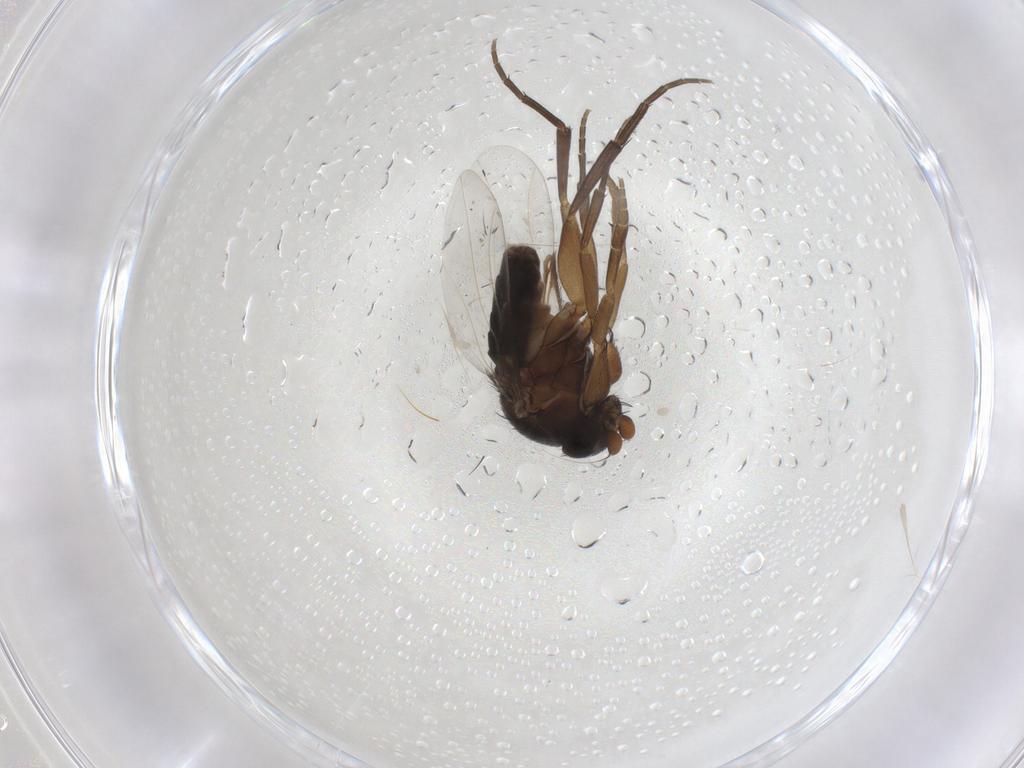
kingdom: Animalia
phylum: Arthropoda
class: Insecta
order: Diptera
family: Phoridae
